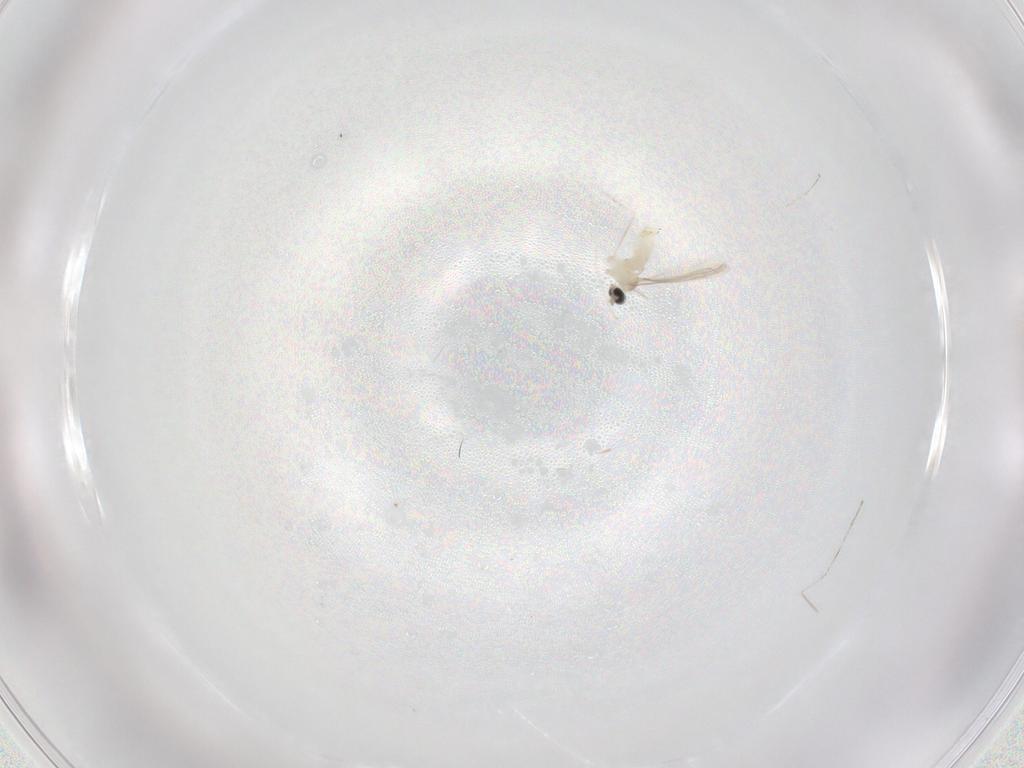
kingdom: Animalia
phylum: Arthropoda
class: Insecta
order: Diptera
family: Cecidomyiidae
